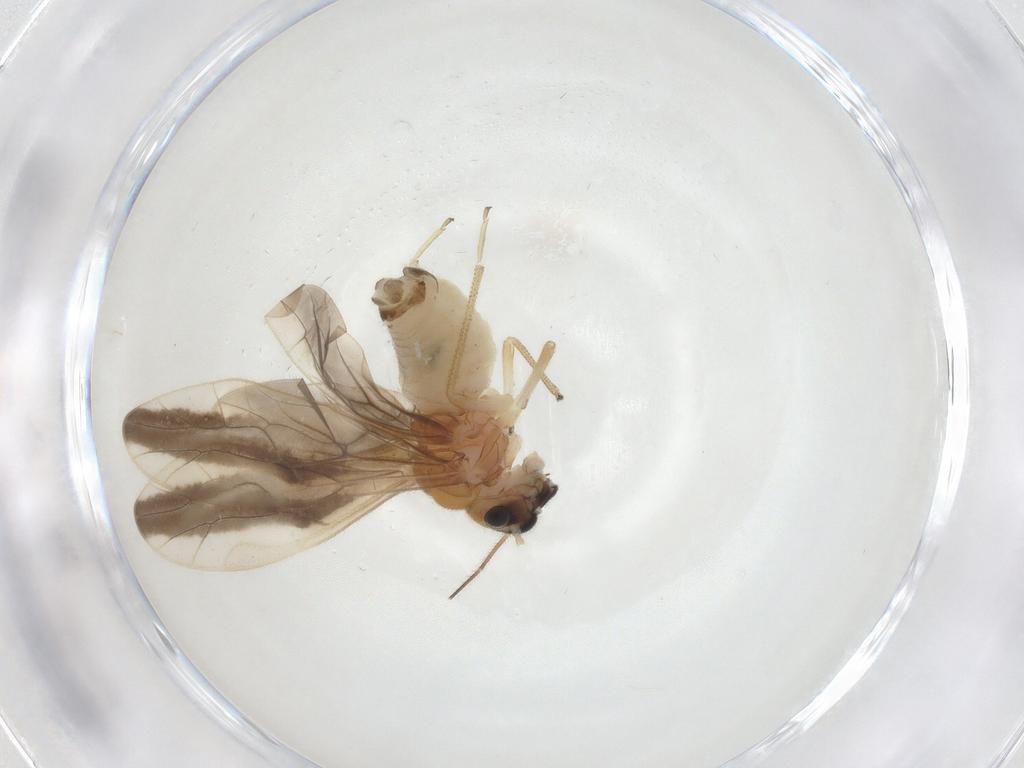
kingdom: Animalia
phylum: Arthropoda
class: Insecta
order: Psocodea
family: Caeciliusidae
